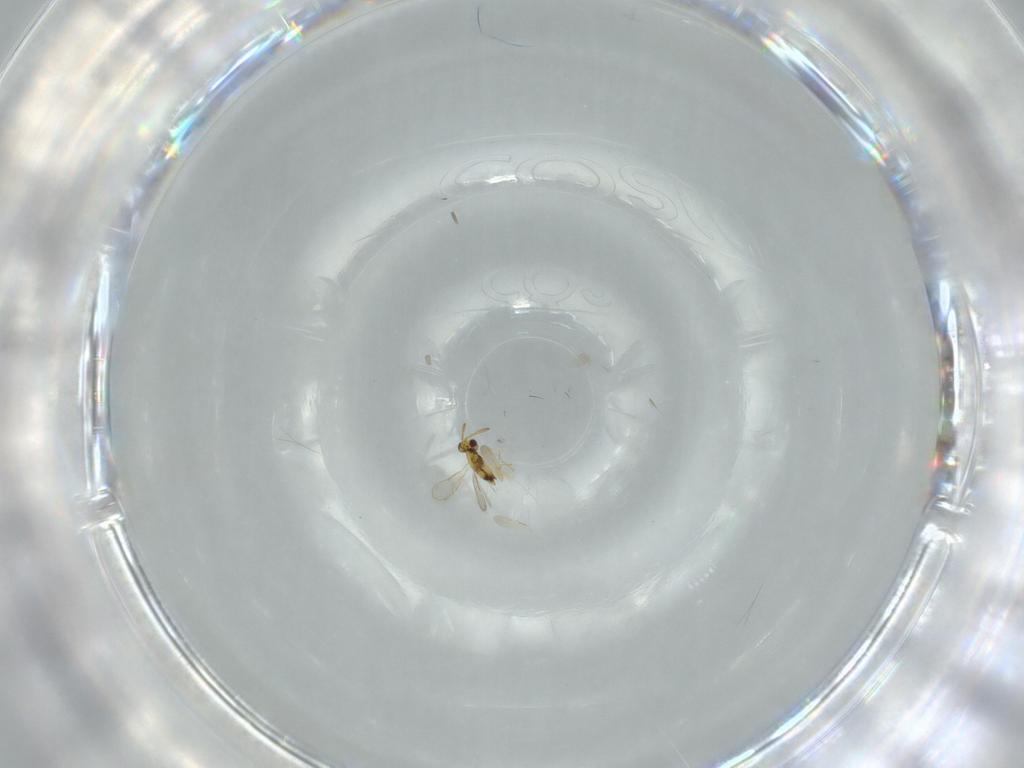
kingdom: Animalia
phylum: Arthropoda
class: Insecta
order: Hymenoptera
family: Aphelinidae
